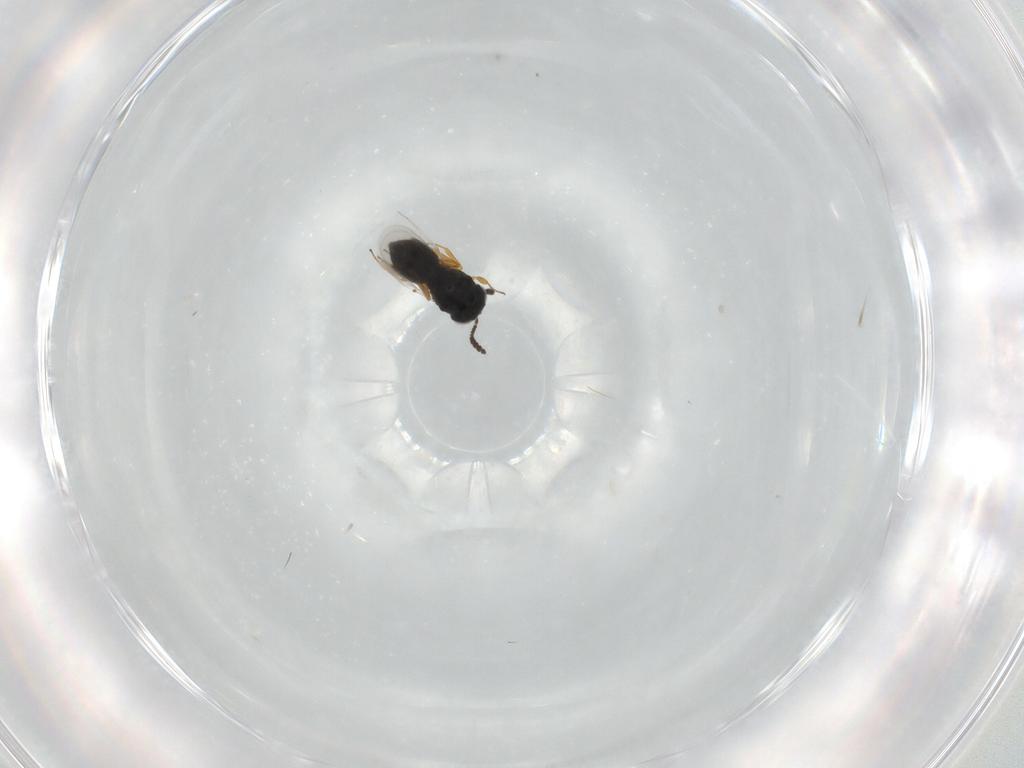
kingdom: Animalia
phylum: Arthropoda
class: Insecta
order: Hymenoptera
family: Scelionidae
